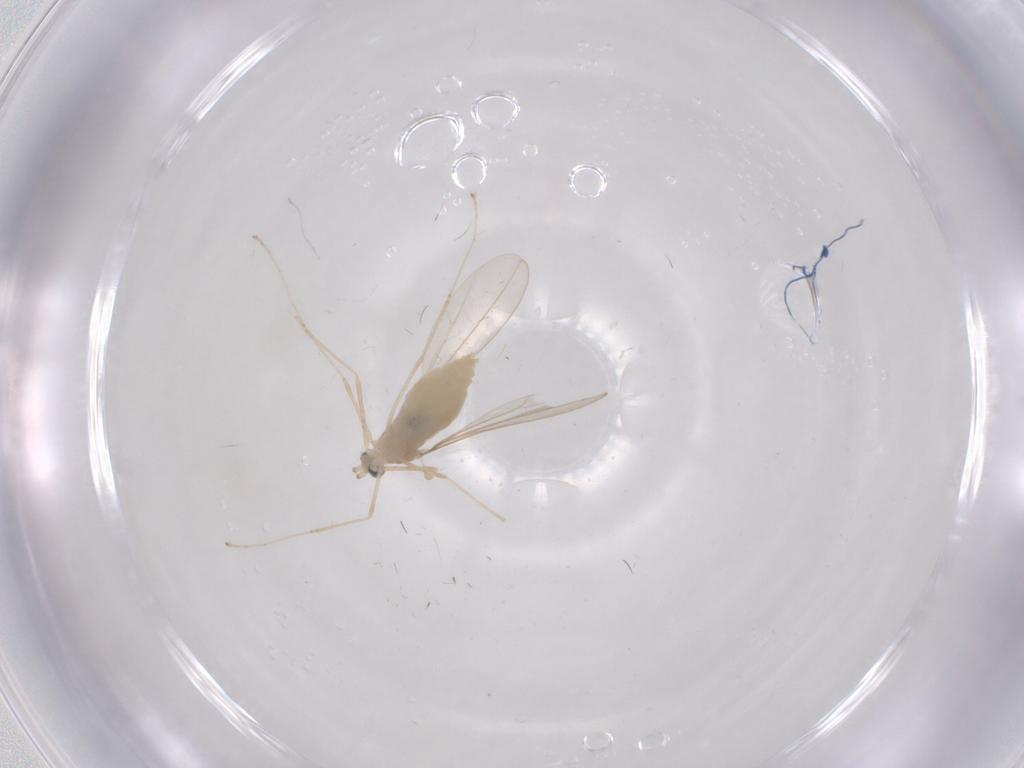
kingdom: Animalia
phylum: Arthropoda
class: Insecta
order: Diptera
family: Cecidomyiidae
